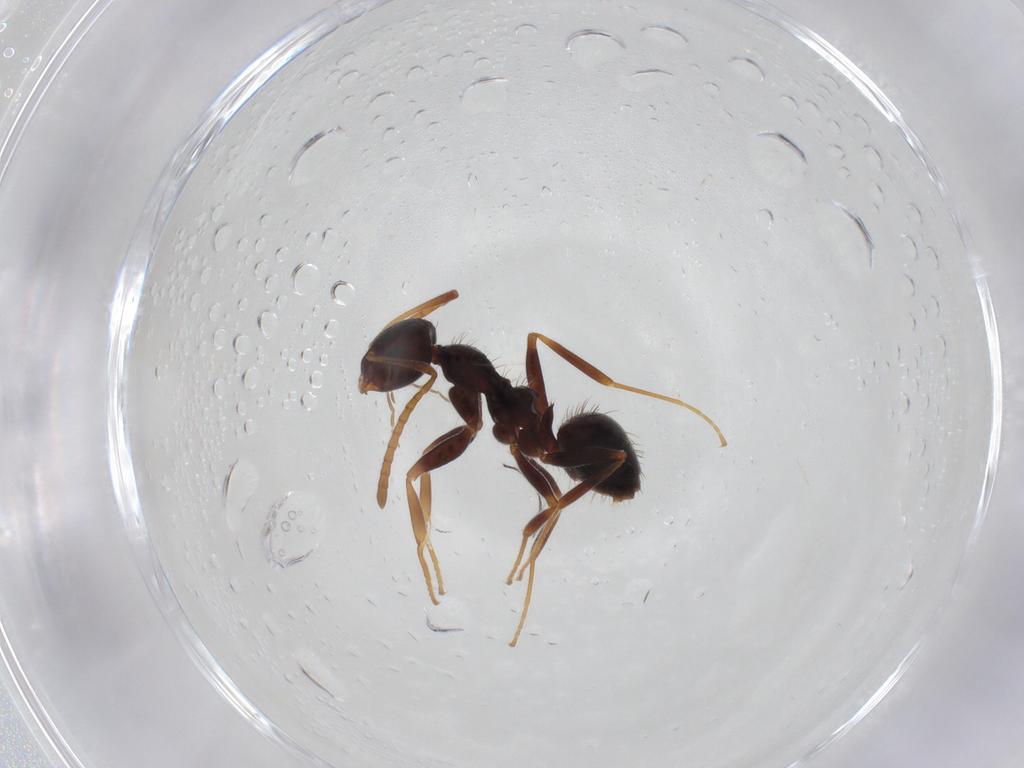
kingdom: Animalia
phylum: Arthropoda
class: Insecta
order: Hymenoptera
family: Formicidae
